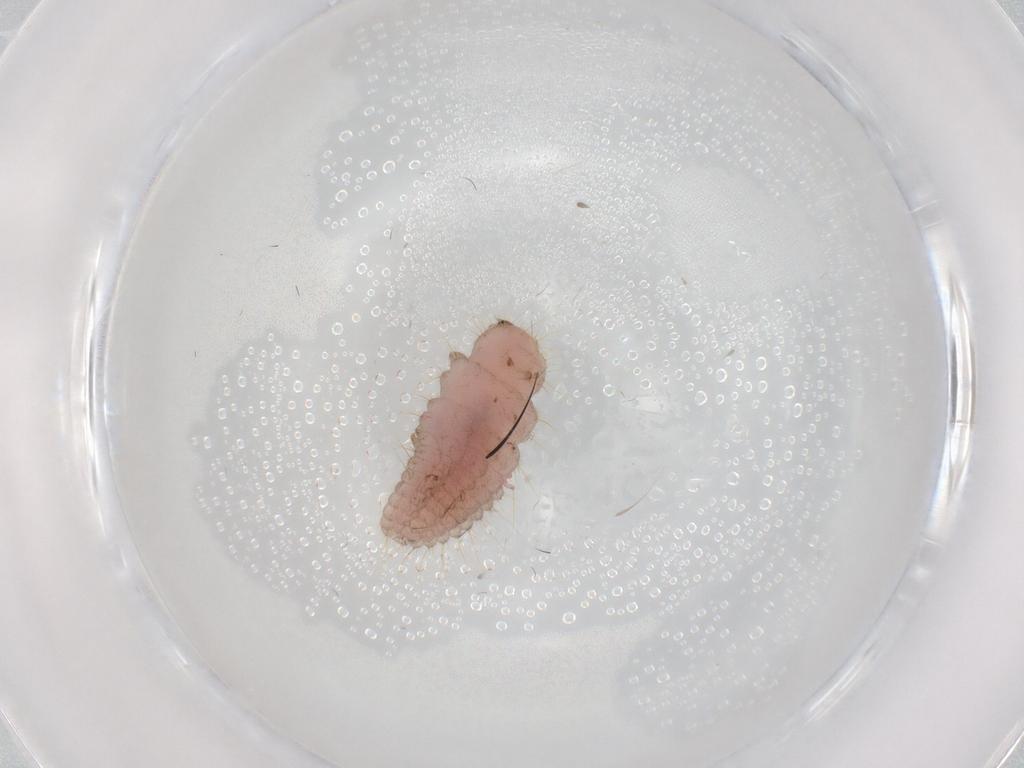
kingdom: Animalia
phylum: Arthropoda
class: Insecta
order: Coleoptera
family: Coccinellidae
